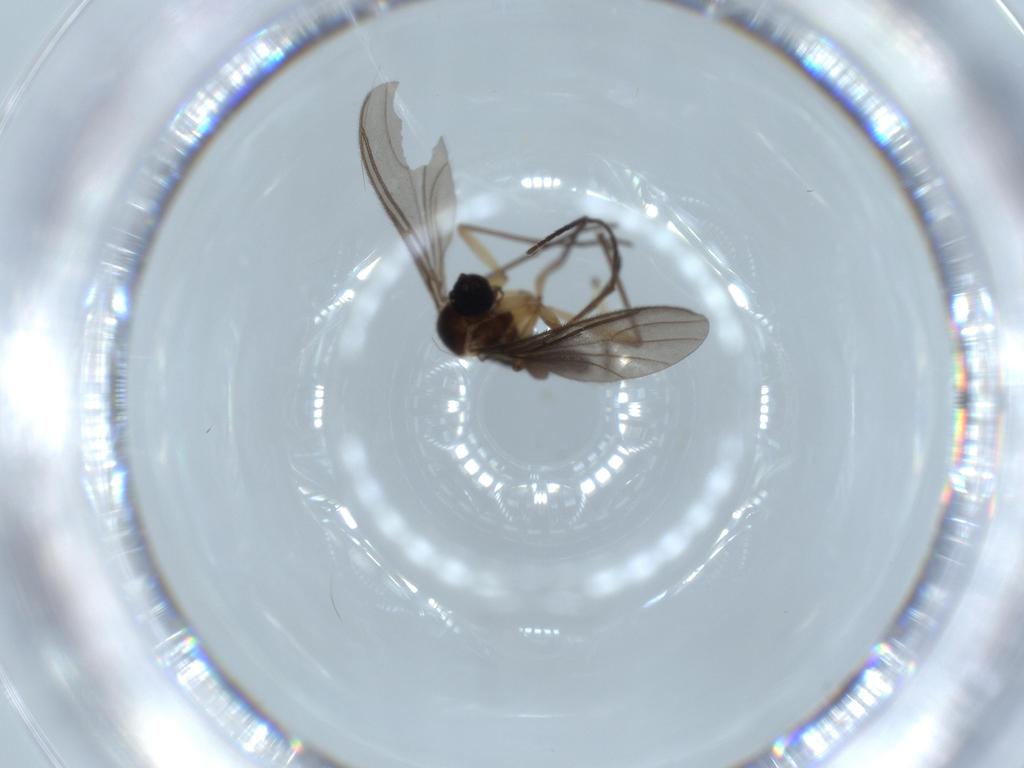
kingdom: Animalia
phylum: Arthropoda
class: Insecta
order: Diptera
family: Sciaridae
